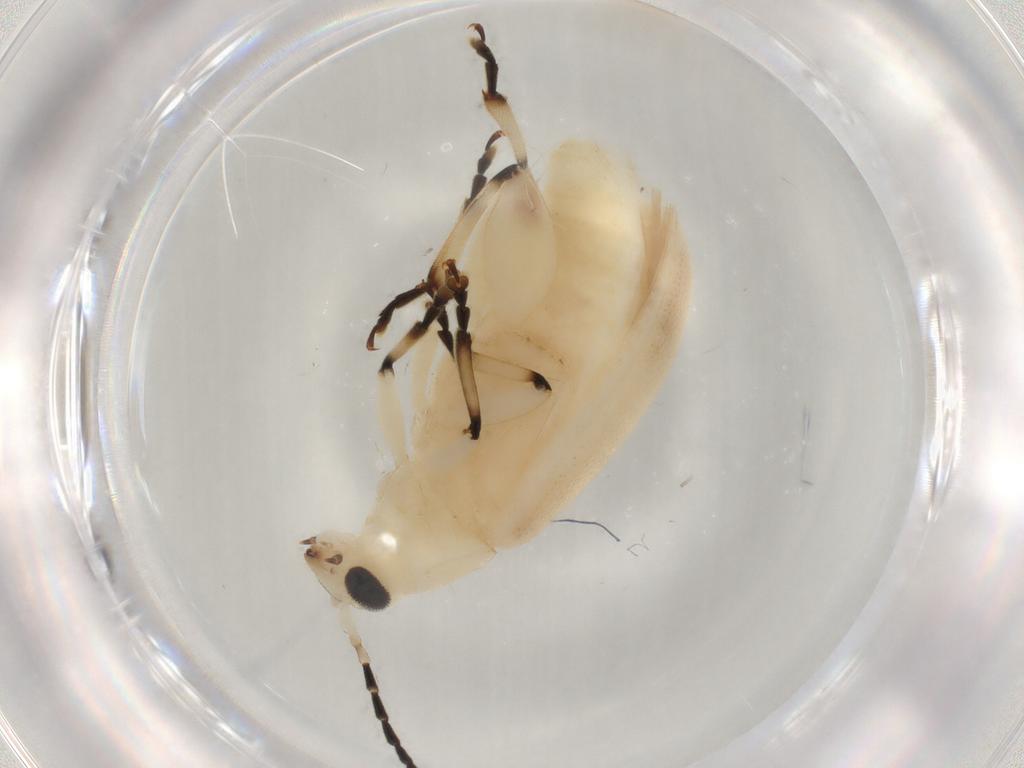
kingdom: Animalia
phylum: Arthropoda
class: Insecta
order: Coleoptera
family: Chrysomelidae
